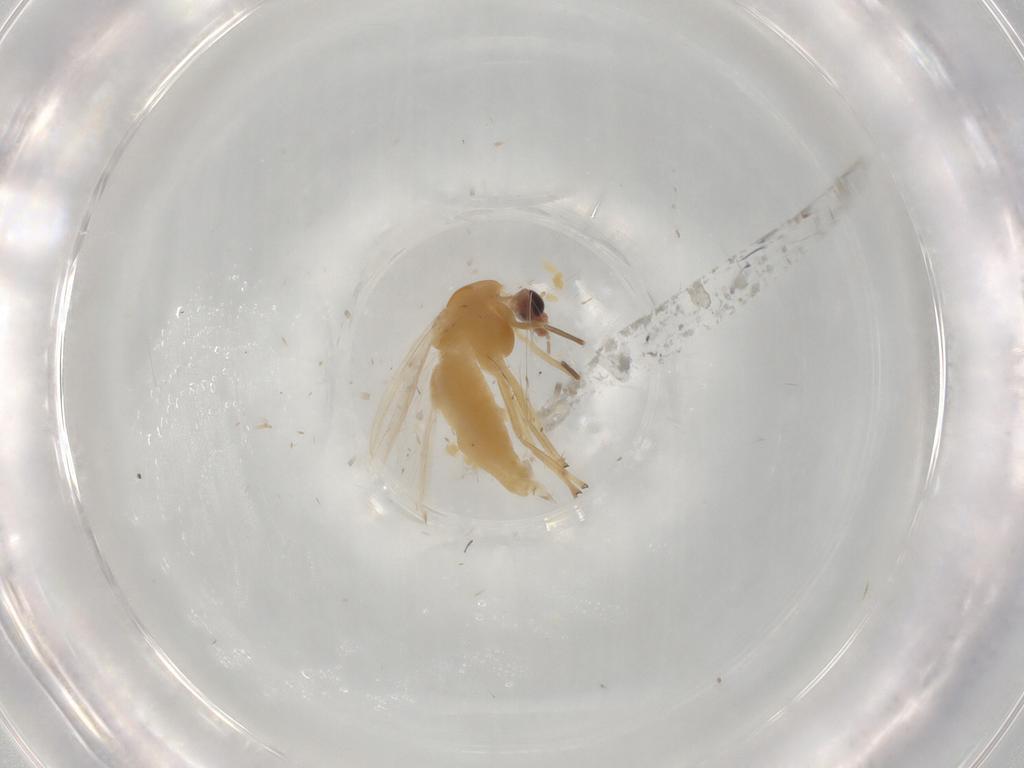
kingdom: Animalia
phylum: Arthropoda
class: Insecta
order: Diptera
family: Chironomidae
